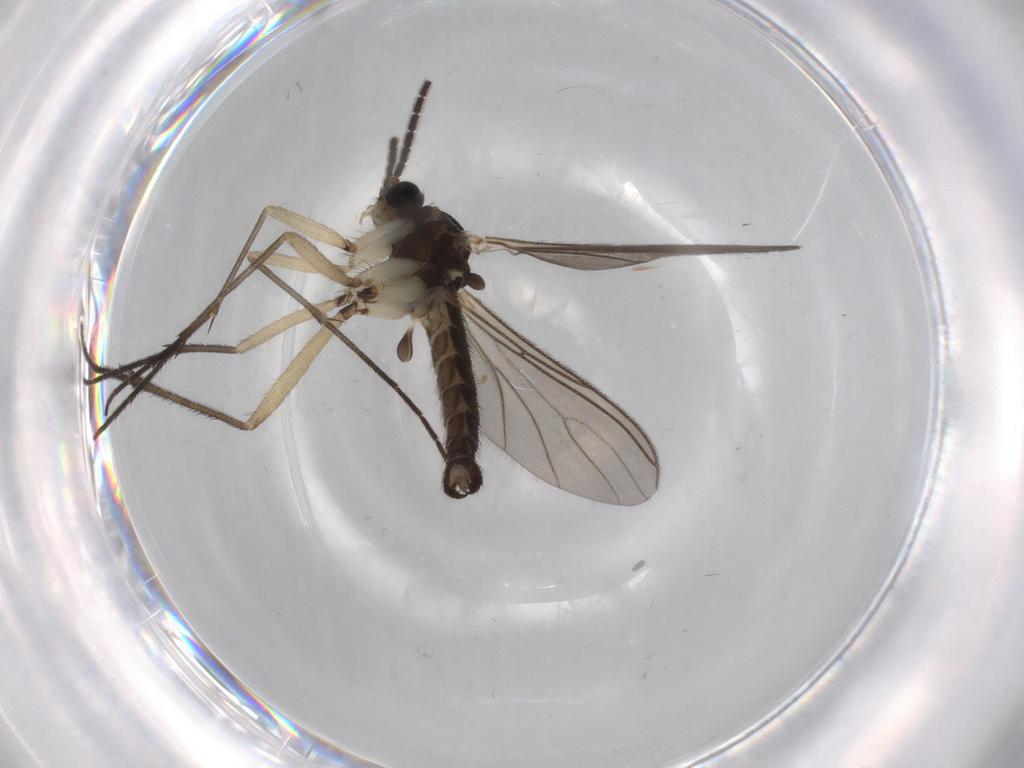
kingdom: Animalia
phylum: Arthropoda
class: Insecta
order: Diptera
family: Sciaridae
